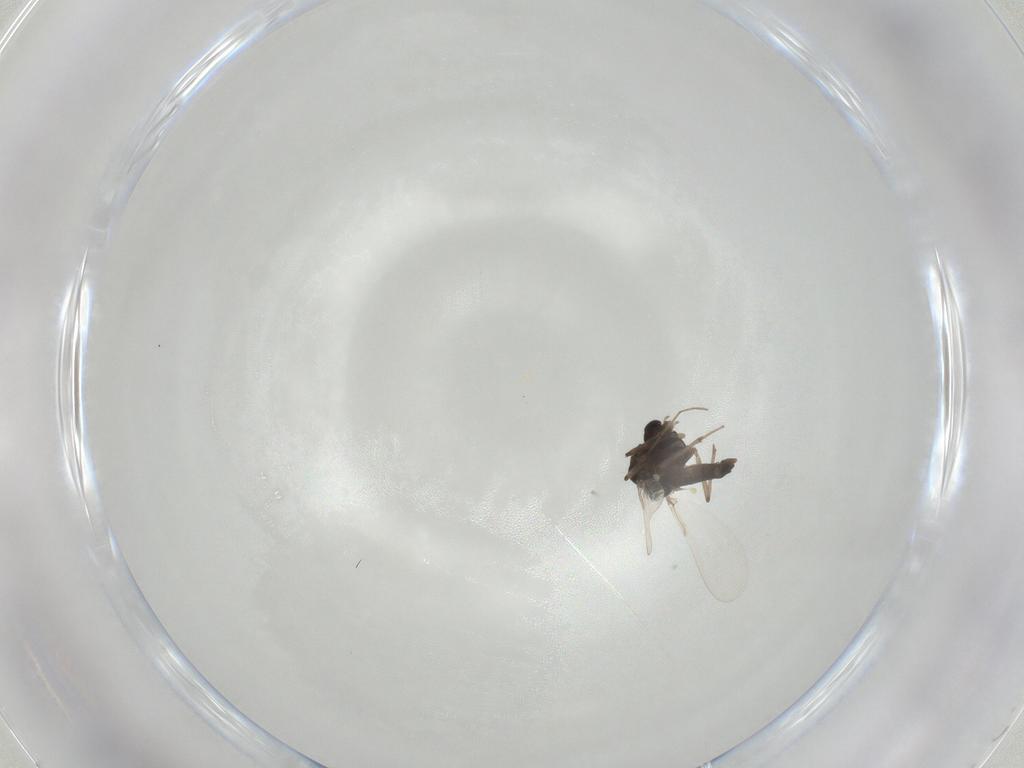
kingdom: Animalia
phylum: Arthropoda
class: Insecta
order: Diptera
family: Chironomidae
